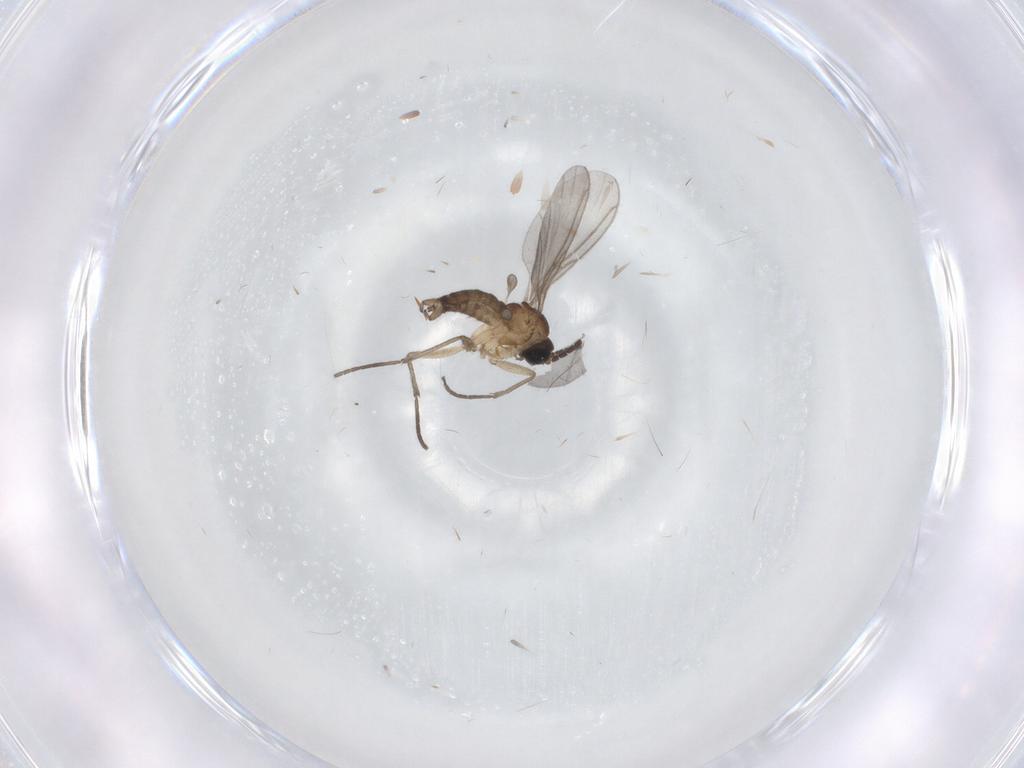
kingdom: Animalia
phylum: Arthropoda
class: Insecta
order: Diptera
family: Sciaridae
